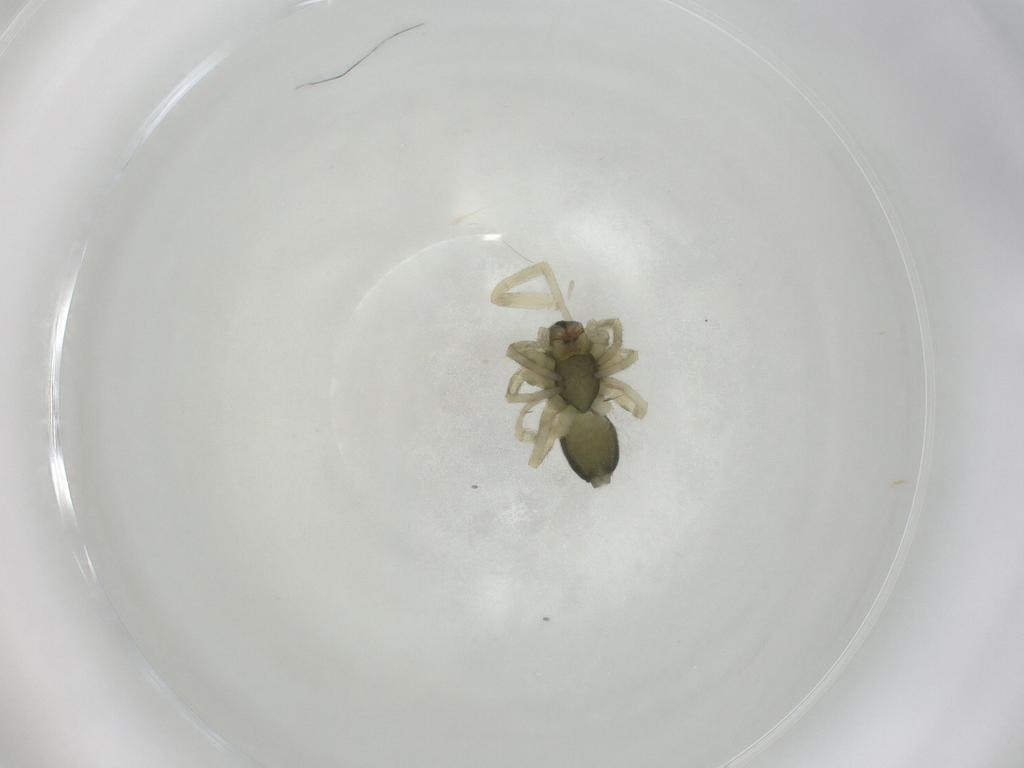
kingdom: Animalia
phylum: Arthropoda
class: Arachnida
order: Araneae
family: Trachelidae
